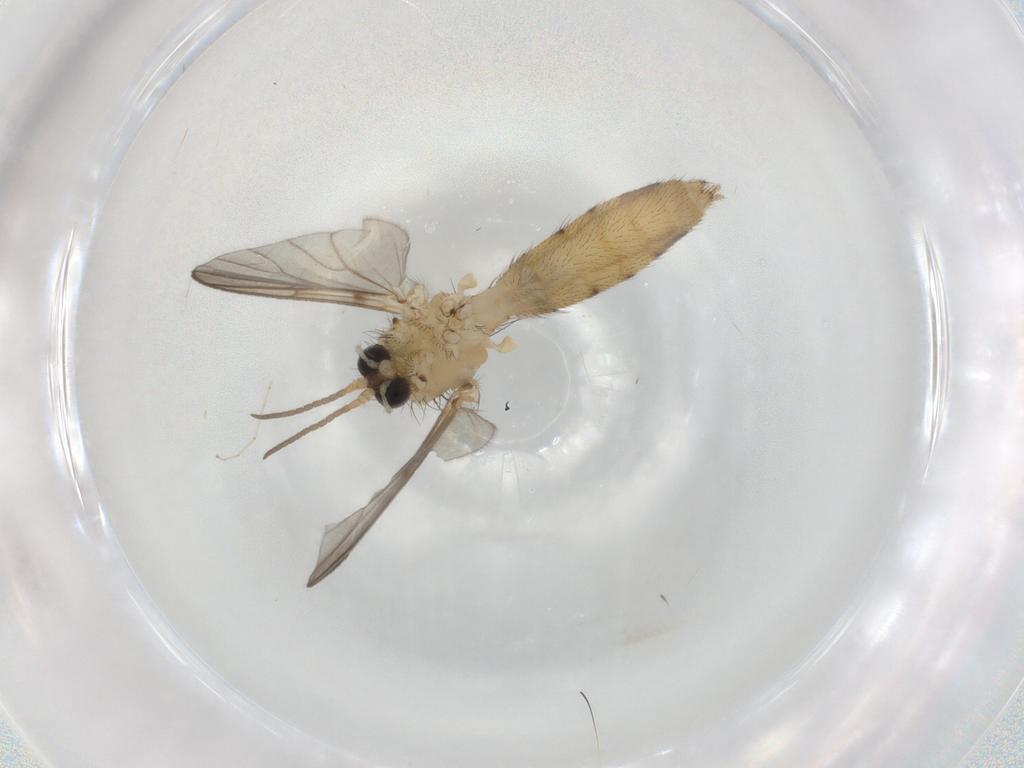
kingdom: Animalia
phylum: Arthropoda
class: Insecta
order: Diptera
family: Mycetophilidae
